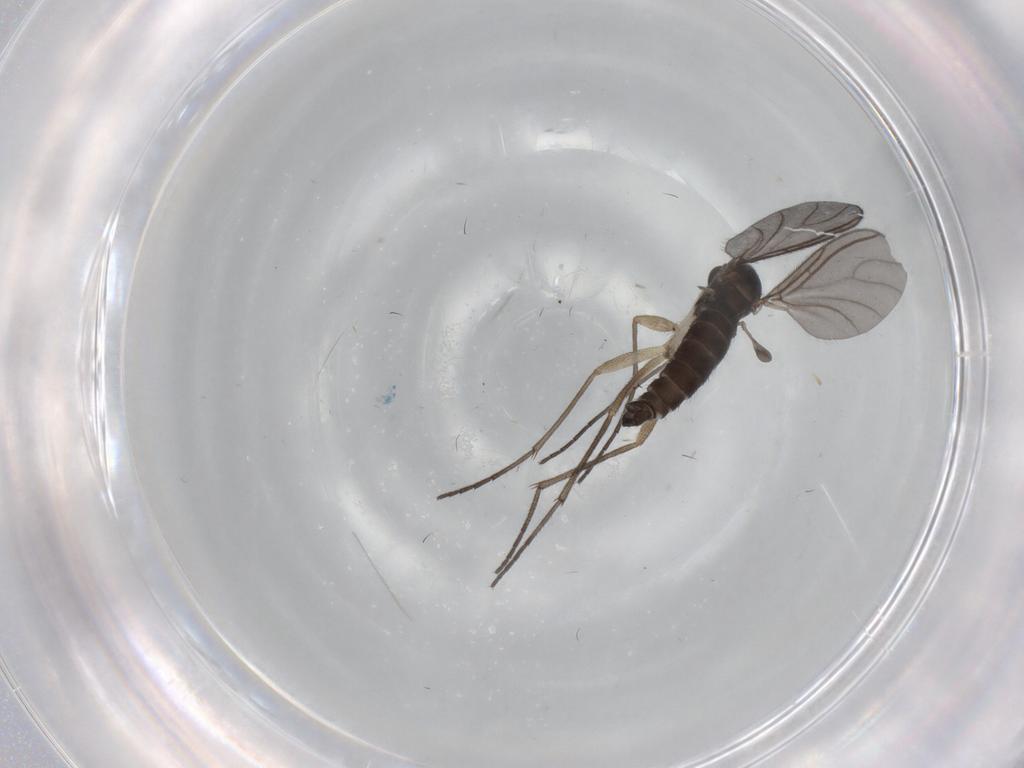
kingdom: Animalia
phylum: Arthropoda
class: Insecta
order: Diptera
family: Sciaridae
